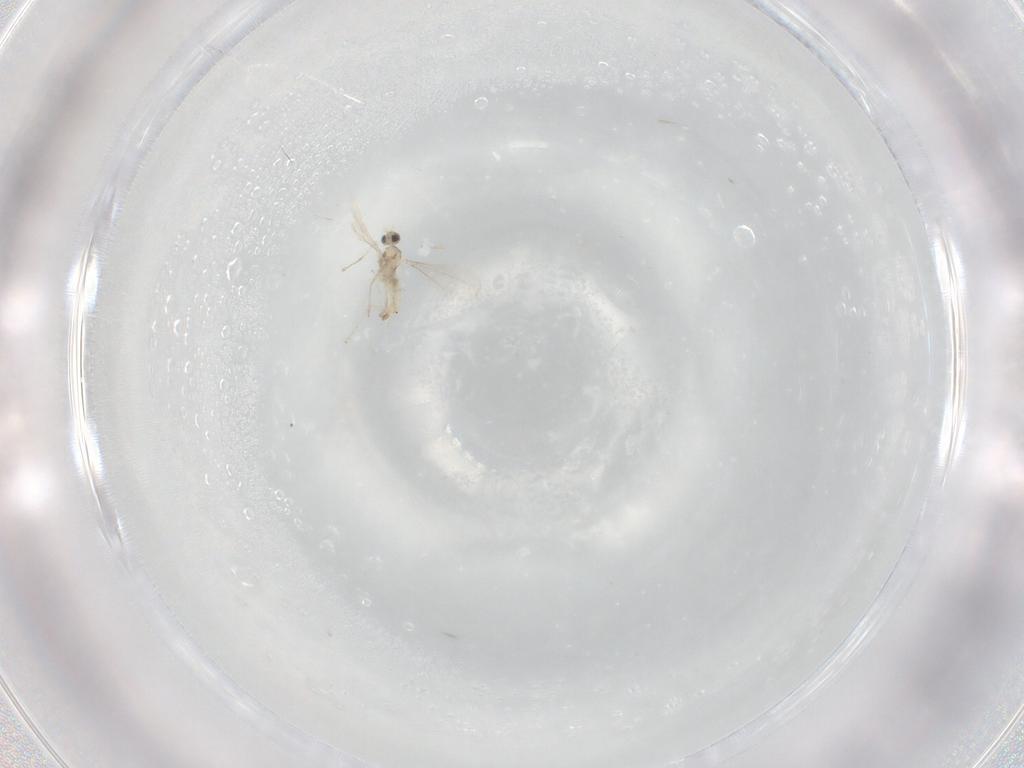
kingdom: Animalia
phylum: Arthropoda
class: Insecta
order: Diptera
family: Cecidomyiidae
